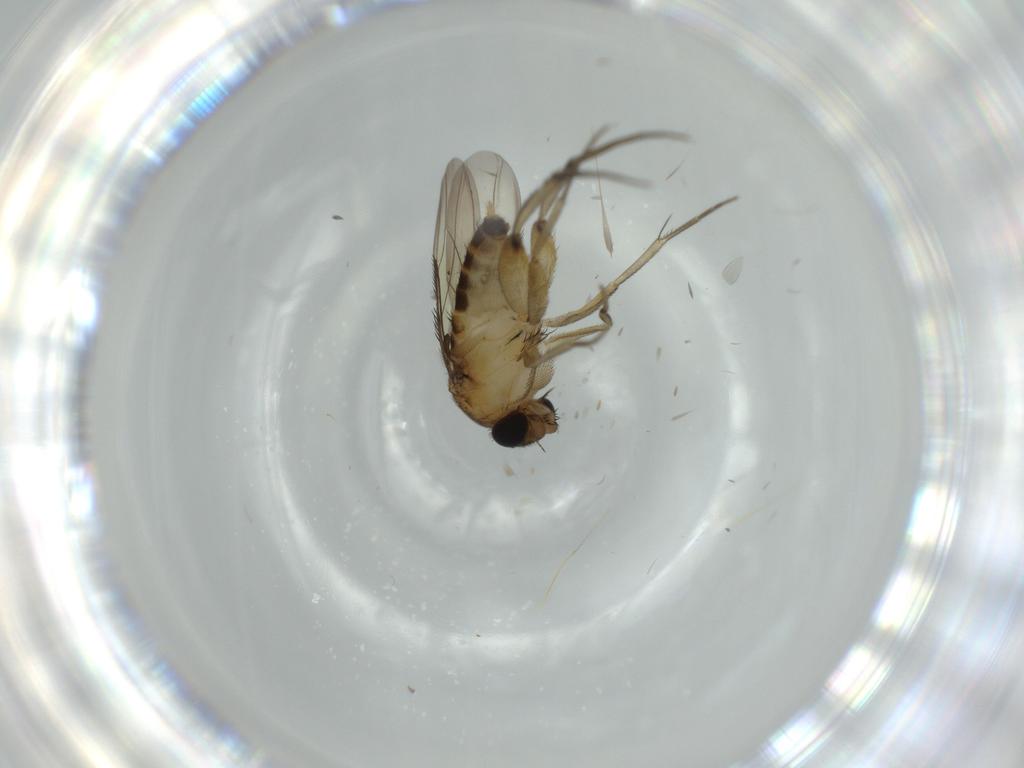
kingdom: Animalia
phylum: Arthropoda
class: Insecta
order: Diptera
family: Phoridae
